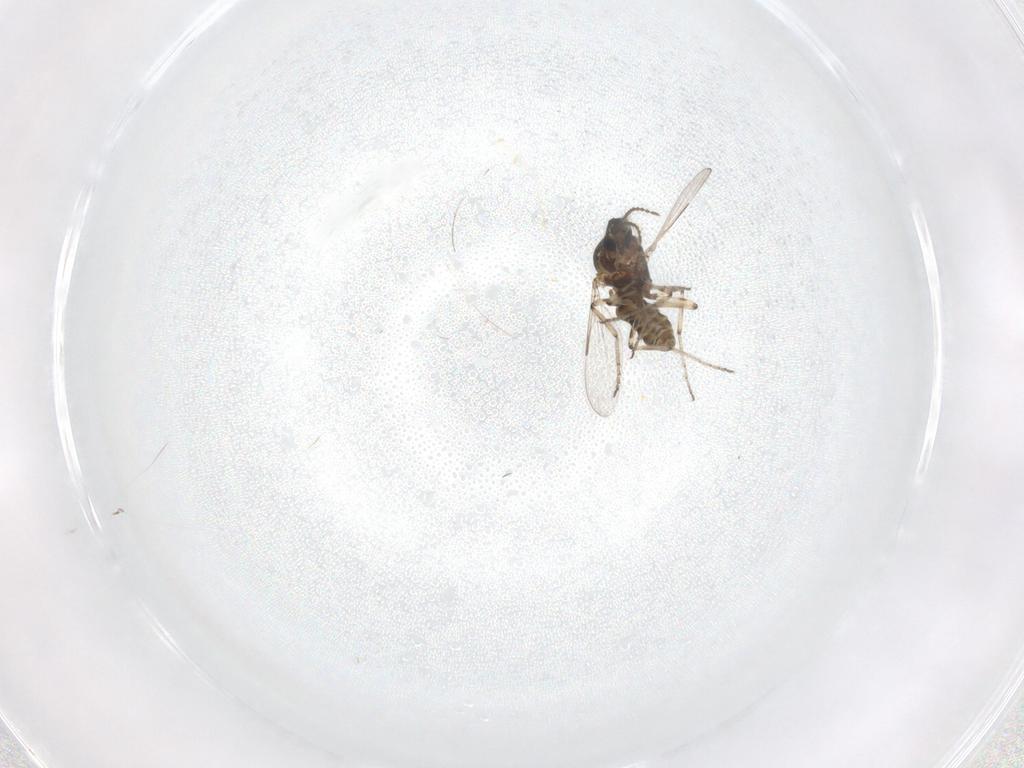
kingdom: Animalia
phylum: Arthropoda
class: Insecta
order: Diptera
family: Ceratopogonidae
